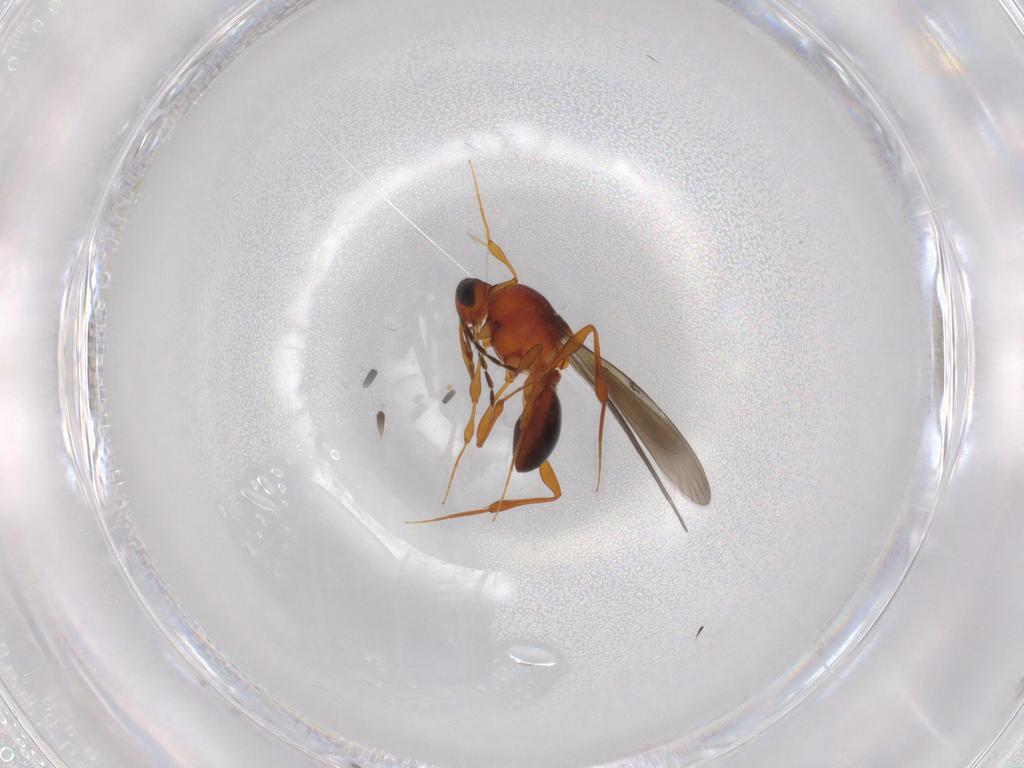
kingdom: Animalia
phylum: Arthropoda
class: Insecta
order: Hymenoptera
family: Platygastridae
